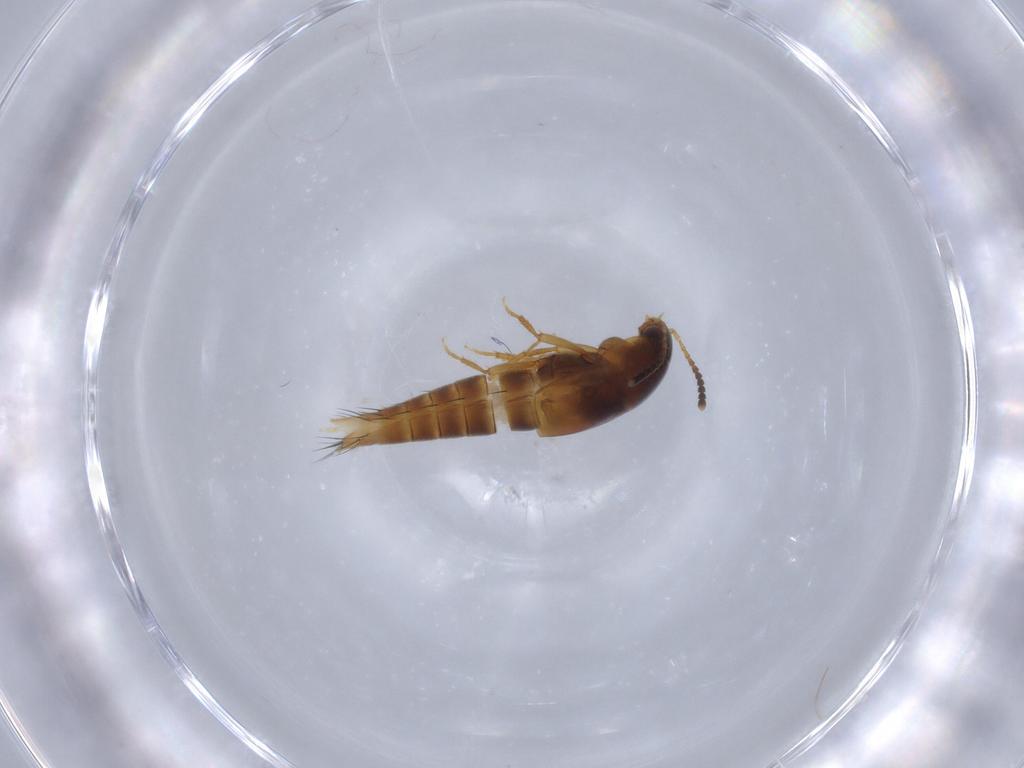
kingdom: Animalia
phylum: Arthropoda
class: Insecta
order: Coleoptera
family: Staphylinidae
